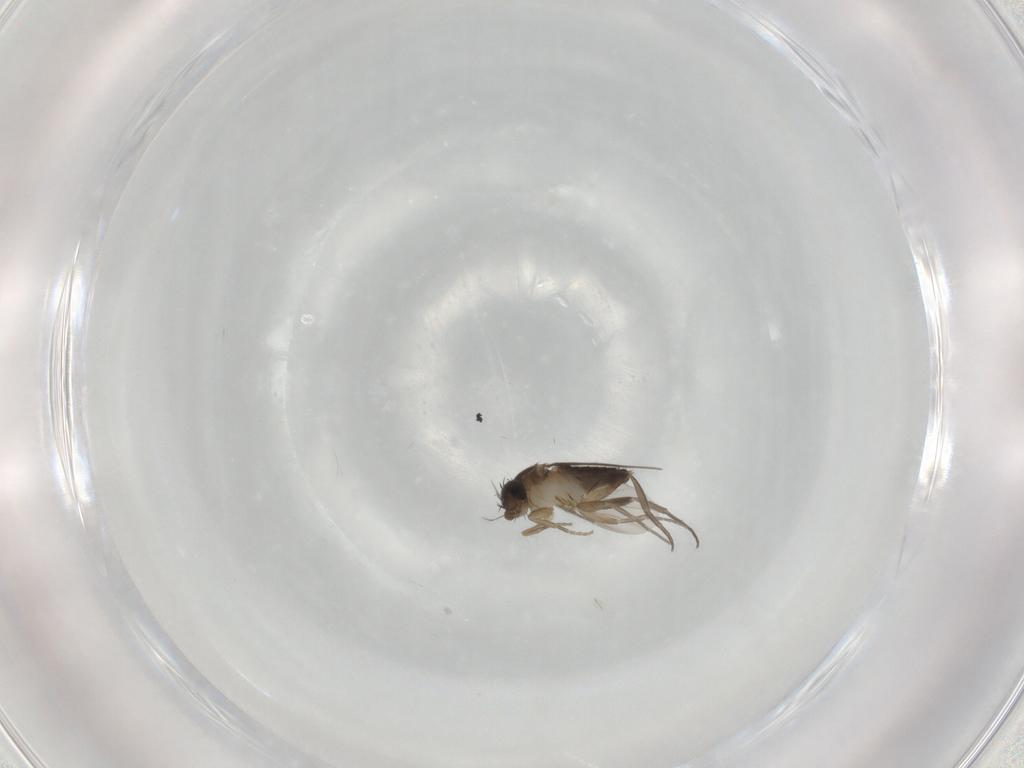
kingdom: Animalia
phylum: Arthropoda
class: Insecta
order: Diptera
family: Phoridae
